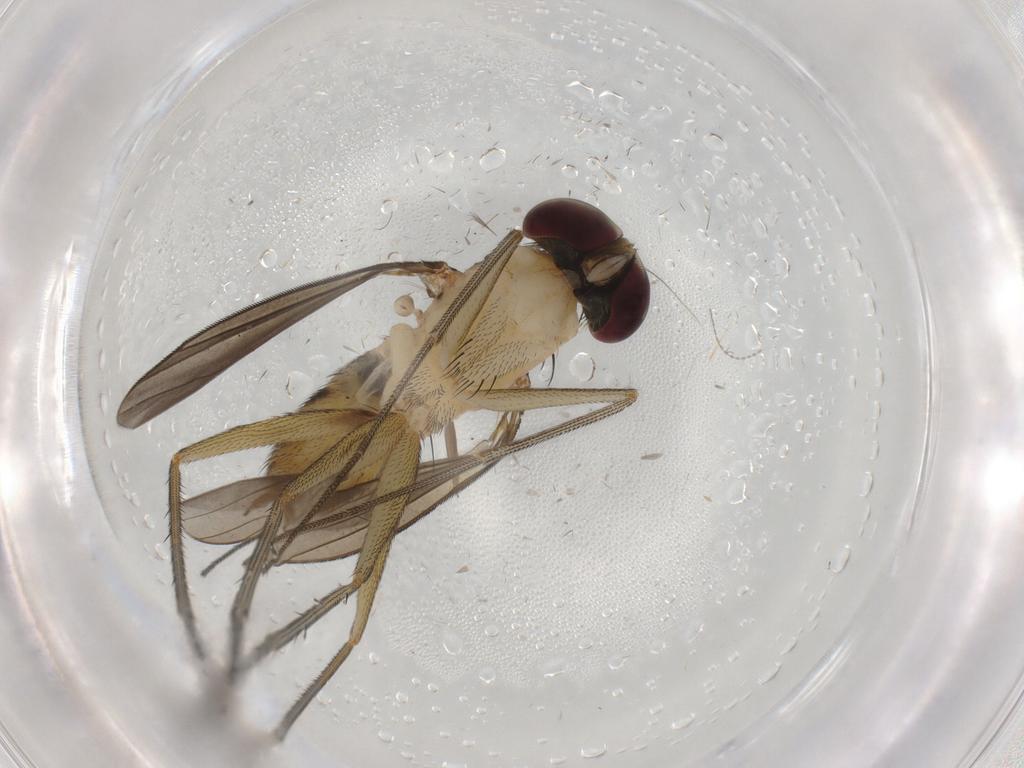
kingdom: Animalia
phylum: Arthropoda
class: Insecta
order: Diptera
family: Dolichopodidae
